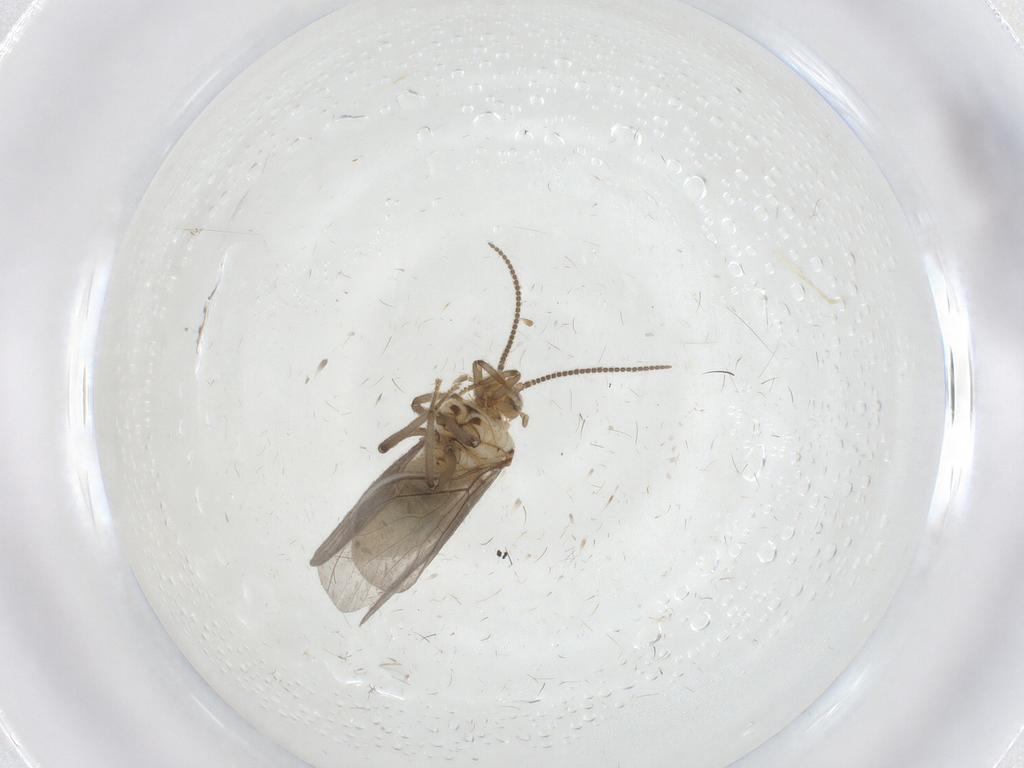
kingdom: Animalia
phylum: Arthropoda
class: Insecta
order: Neuroptera
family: Coniopterygidae
